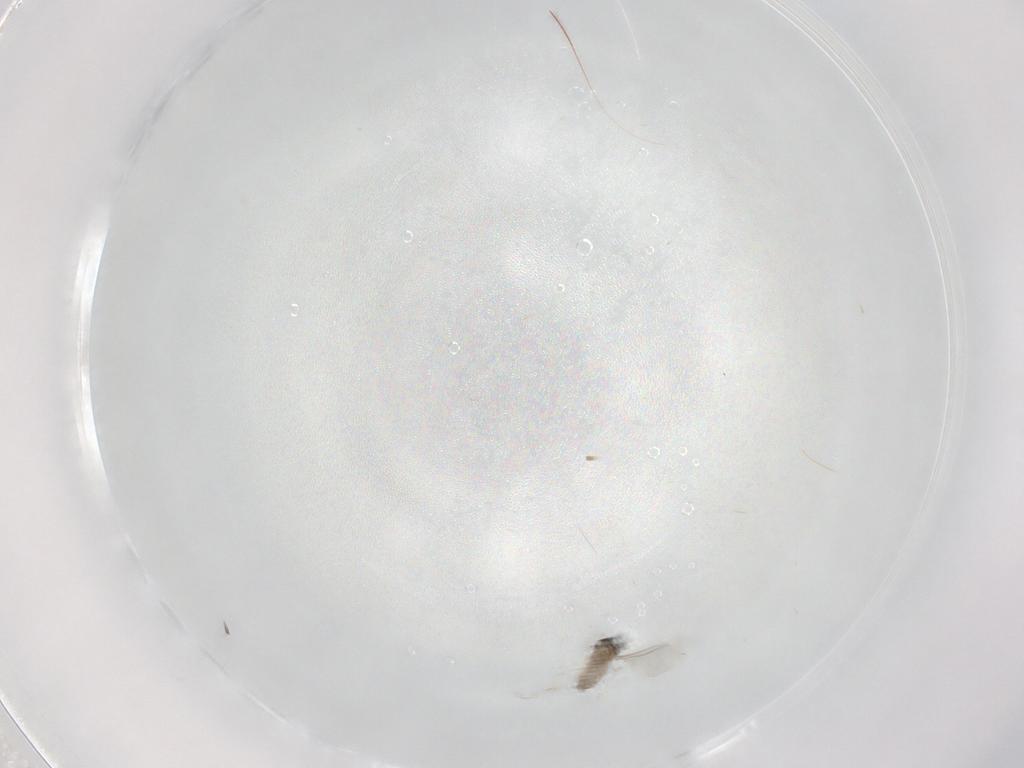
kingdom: Animalia
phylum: Arthropoda
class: Insecta
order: Diptera
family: Cecidomyiidae
